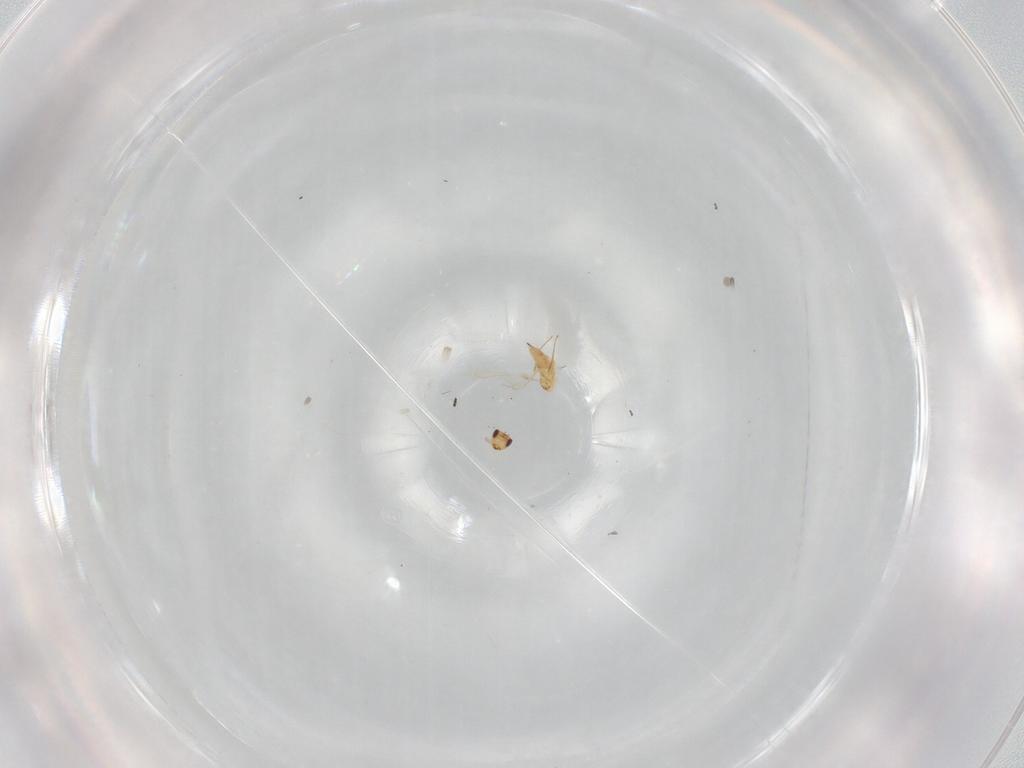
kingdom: Animalia
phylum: Arthropoda
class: Insecta
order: Hymenoptera
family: Mymaridae
